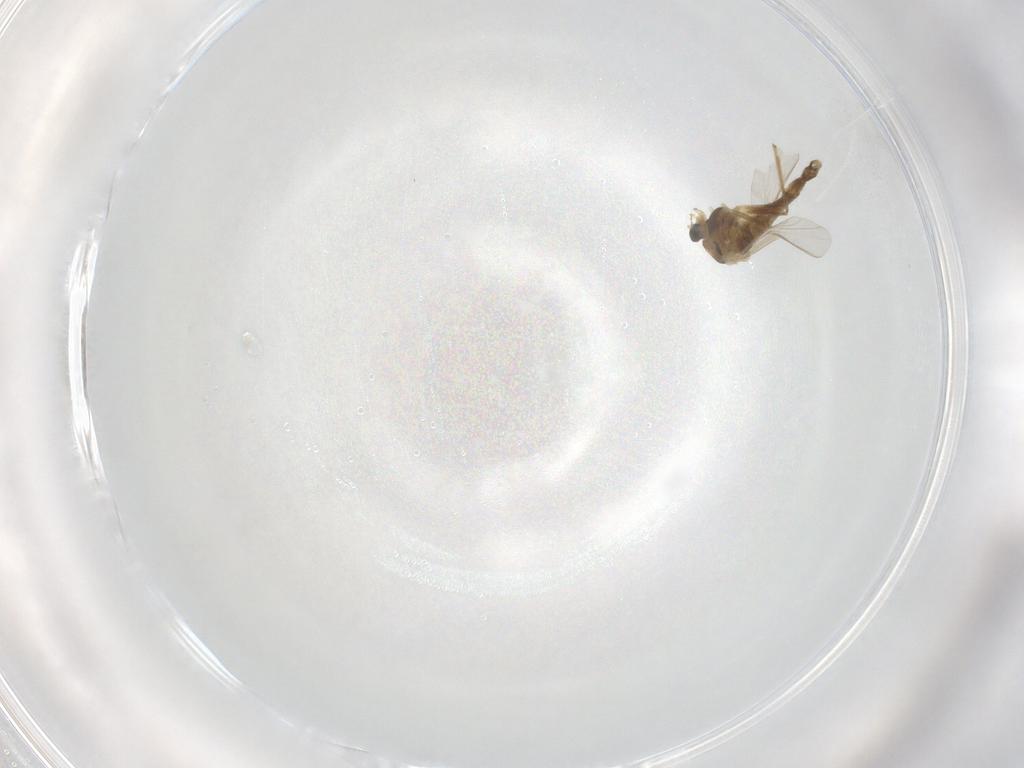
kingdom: Animalia
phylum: Arthropoda
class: Insecta
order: Diptera
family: Chironomidae
